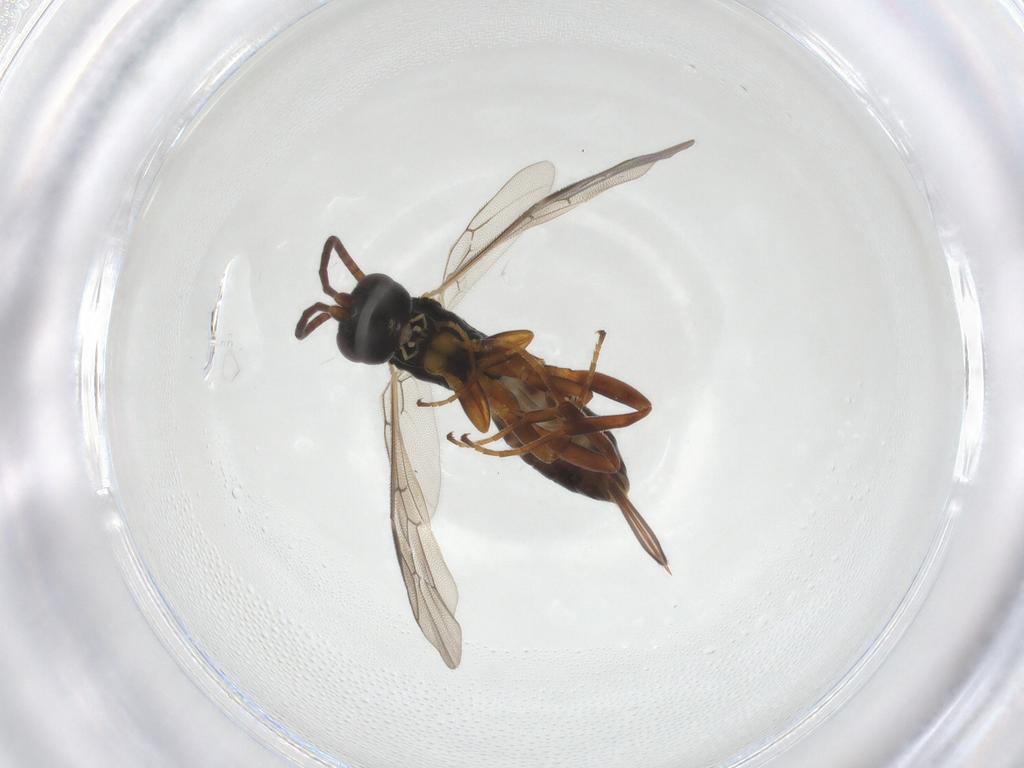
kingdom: Animalia
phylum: Arthropoda
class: Insecta
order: Hymenoptera
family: Ichneumonidae
